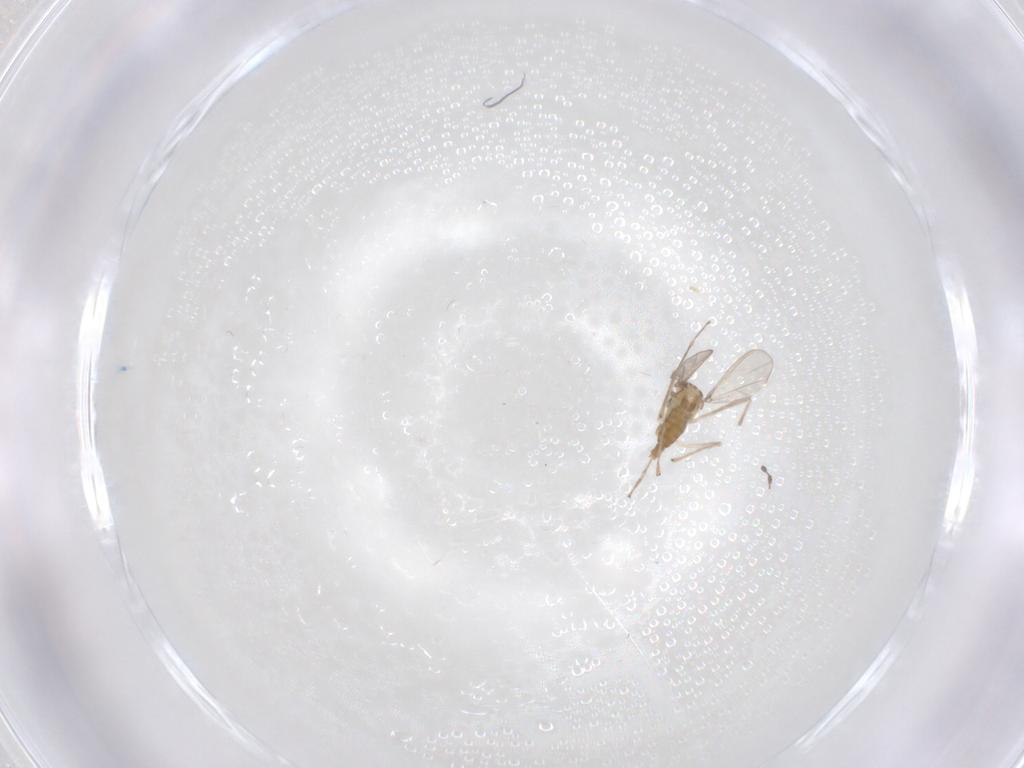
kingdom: Animalia
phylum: Arthropoda
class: Insecta
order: Diptera
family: Chironomidae
